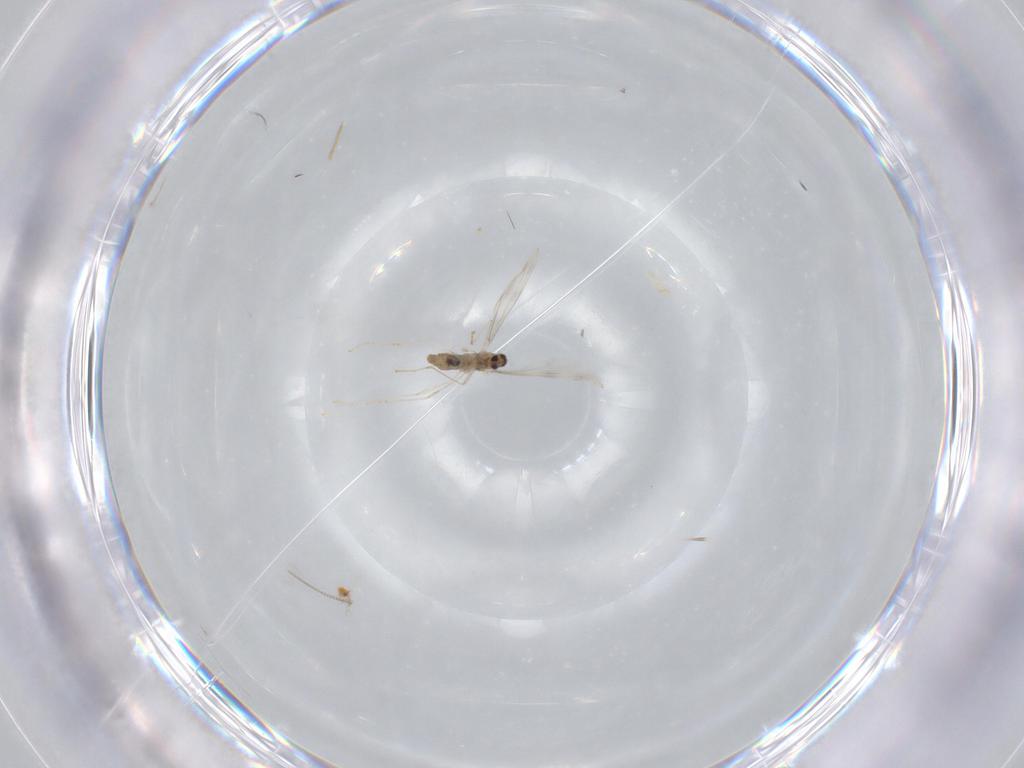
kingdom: Animalia
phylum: Arthropoda
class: Insecta
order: Diptera
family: Cecidomyiidae
